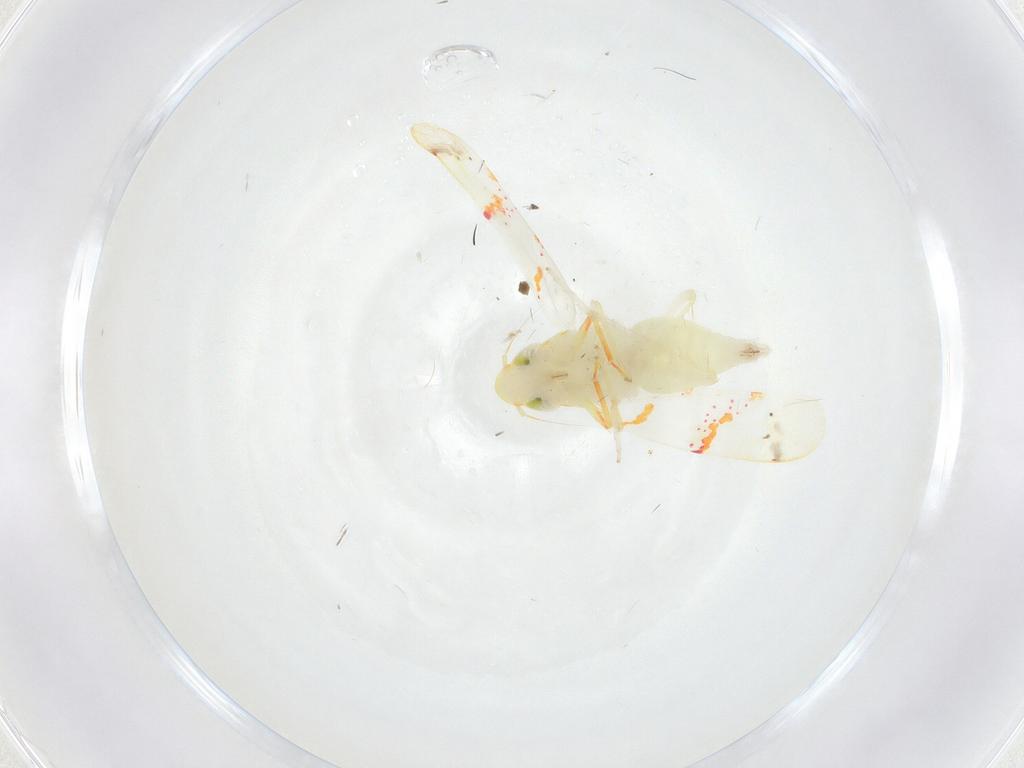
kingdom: Animalia
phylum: Arthropoda
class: Insecta
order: Hemiptera
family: Cicadellidae
